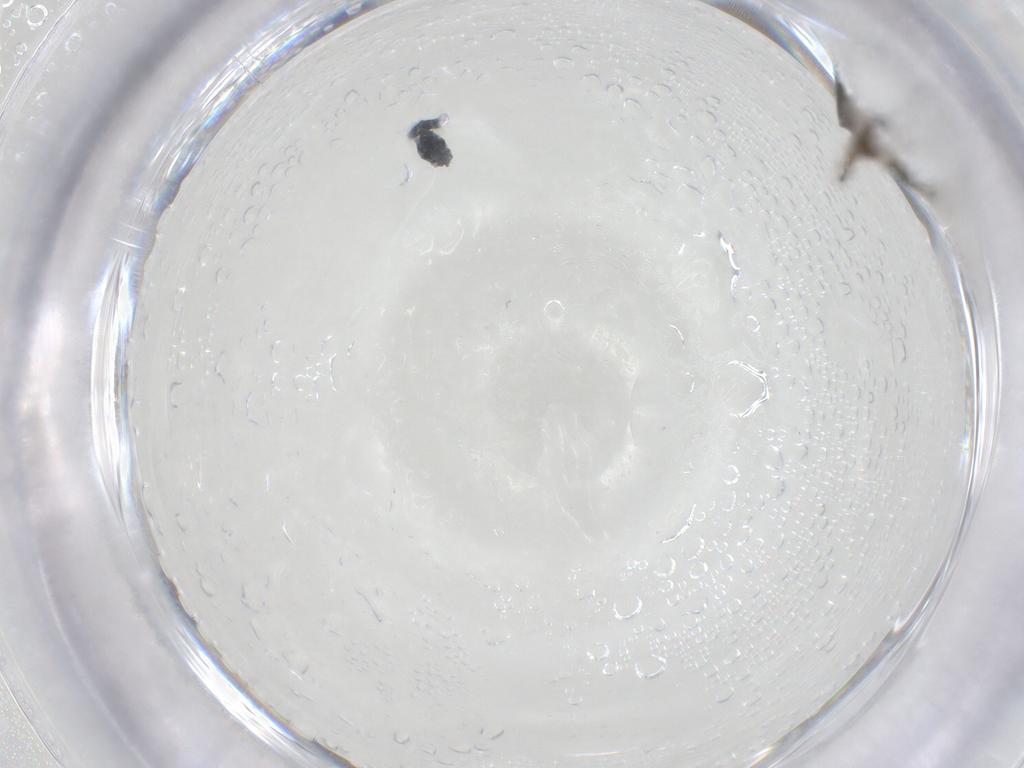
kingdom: Animalia
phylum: Arthropoda
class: Insecta
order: Diptera
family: Sciaridae
